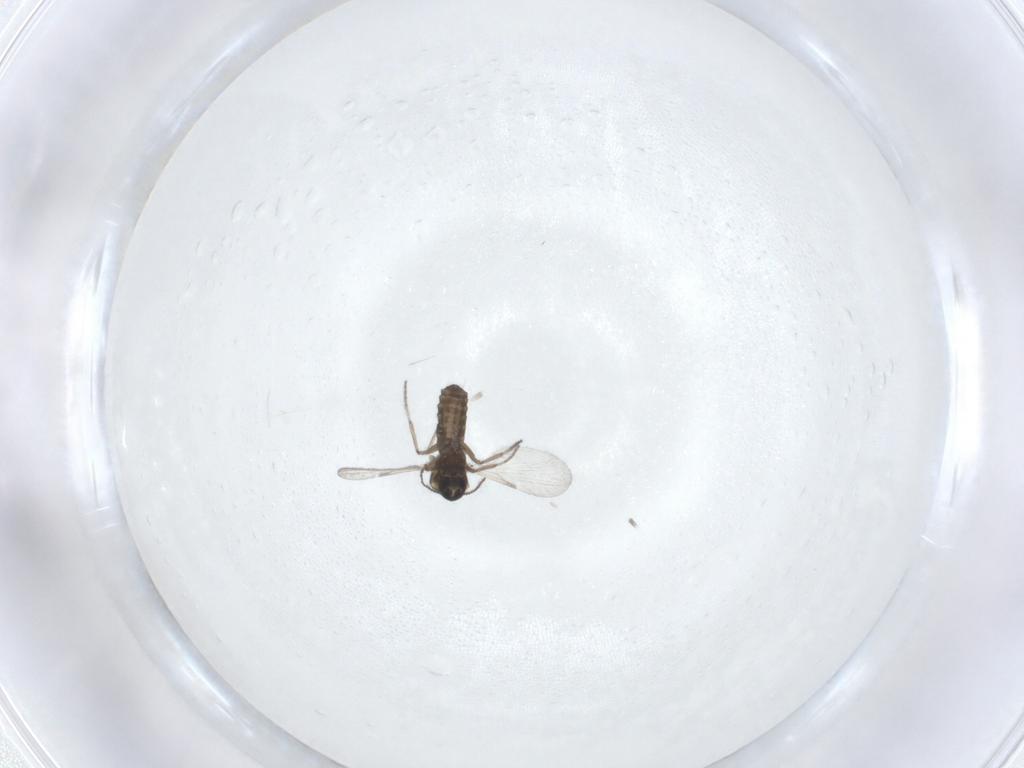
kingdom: Animalia
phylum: Arthropoda
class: Insecta
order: Diptera
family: Ceratopogonidae
